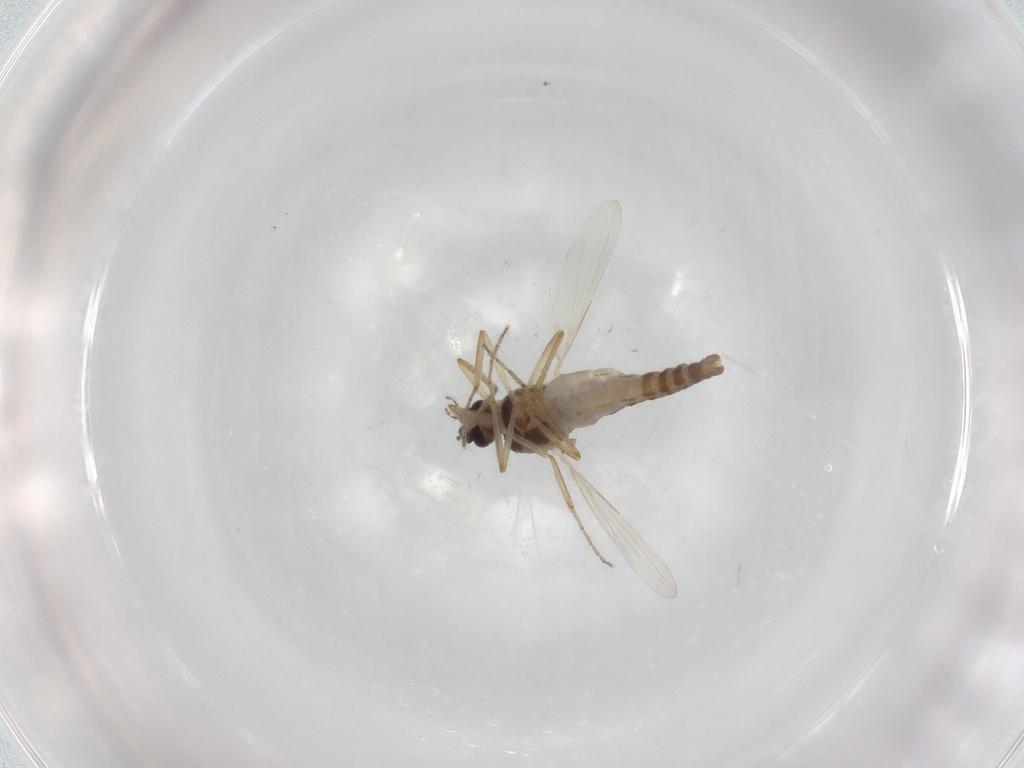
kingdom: Animalia
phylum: Arthropoda
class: Insecta
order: Diptera
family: Ceratopogonidae
